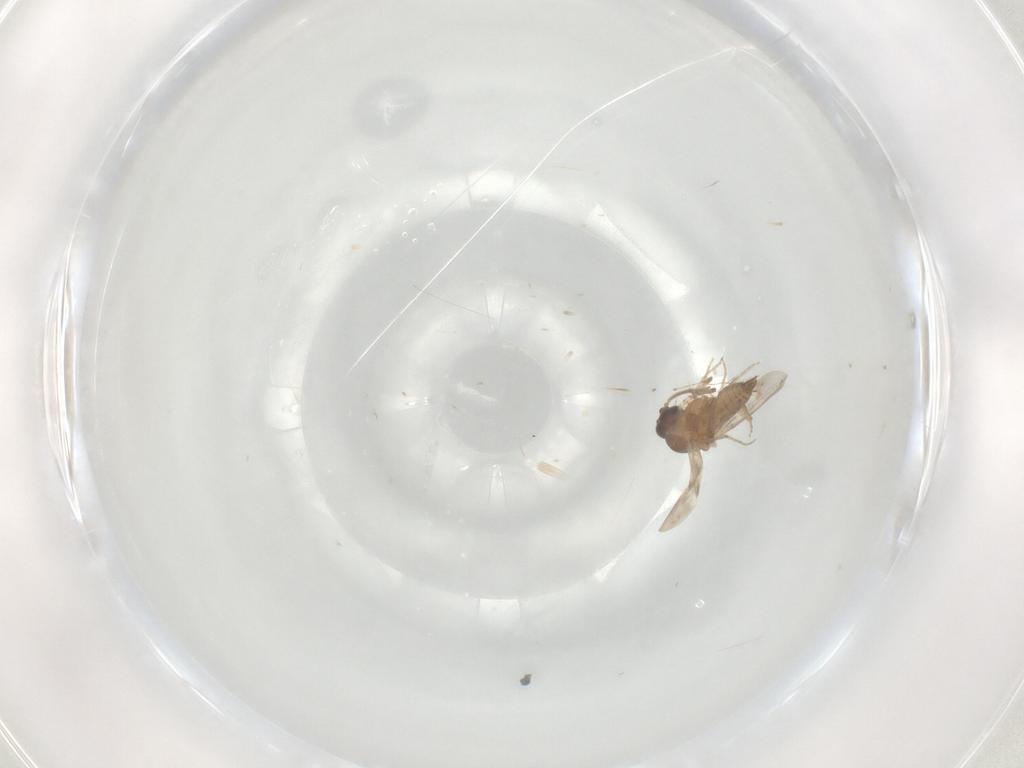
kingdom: Animalia
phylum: Arthropoda
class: Insecta
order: Diptera
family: Ceratopogonidae
